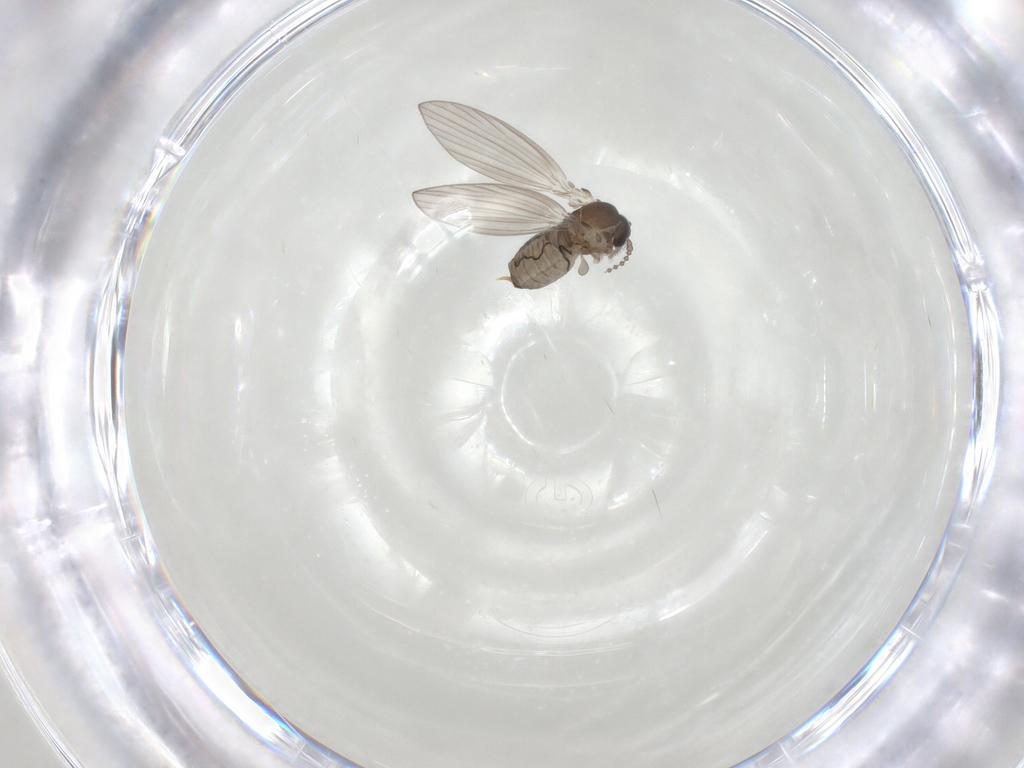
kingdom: Animalia
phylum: Arthropoda
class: Insecta
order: Diptera
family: Psychodidae
